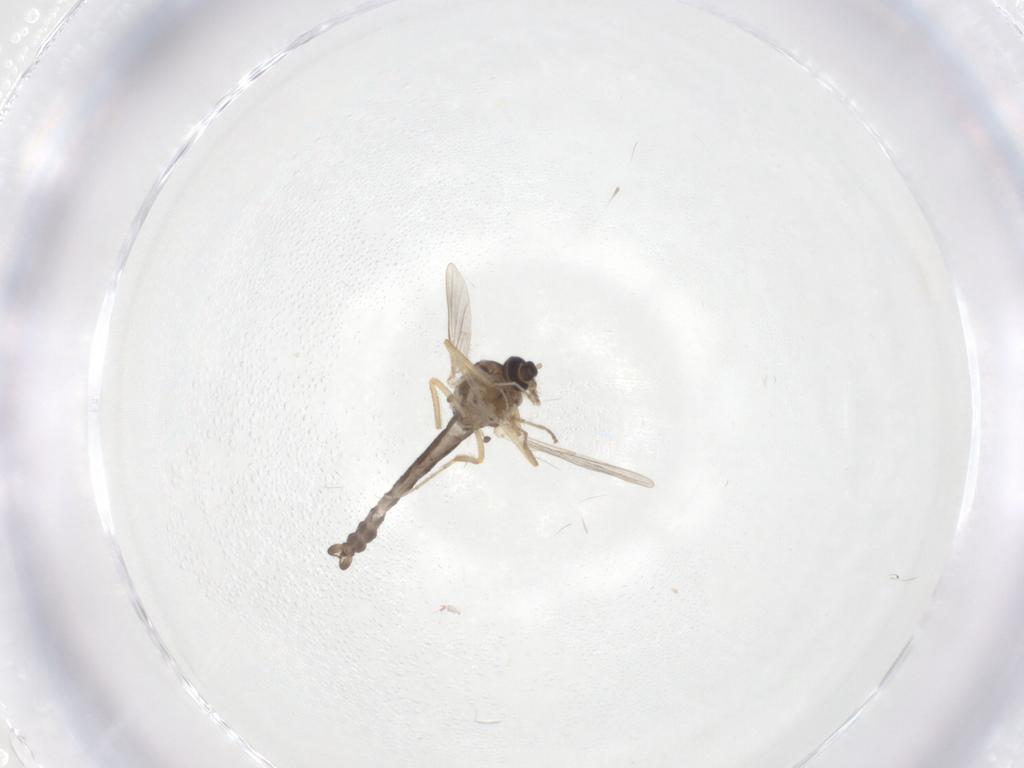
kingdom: Animalia
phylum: Arthropoda
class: Insecta
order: Diptera
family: Ceratopogonidae
